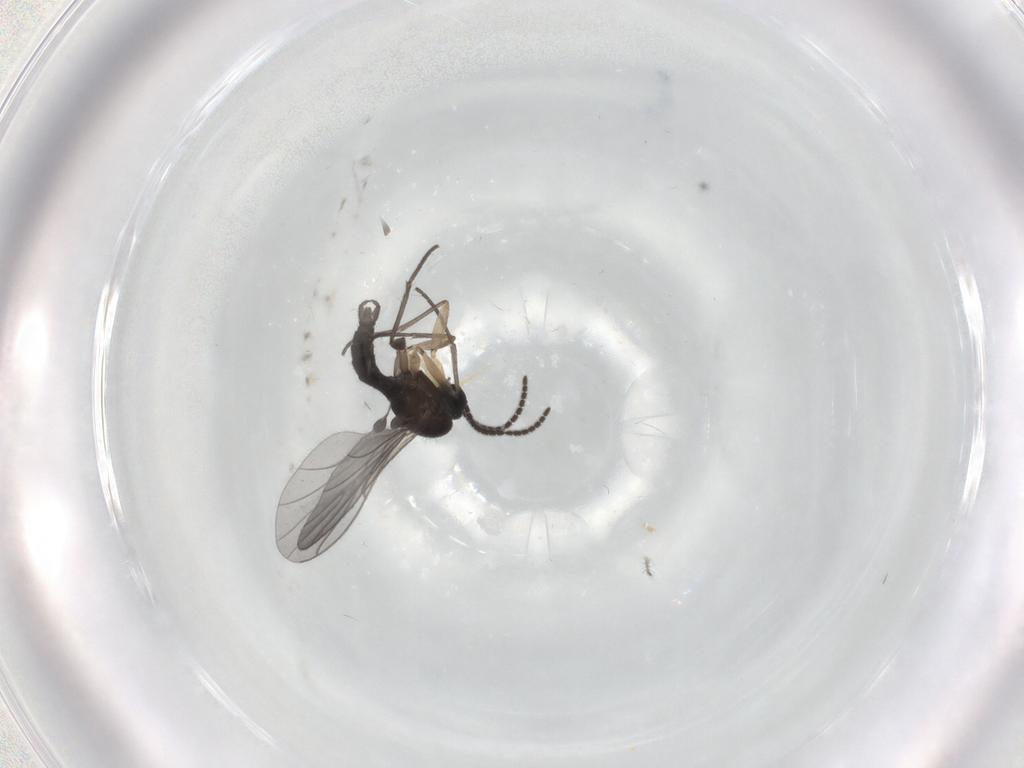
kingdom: Animalia
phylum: Arthropoda
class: Insecta
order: Diptera
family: Sciaridae
